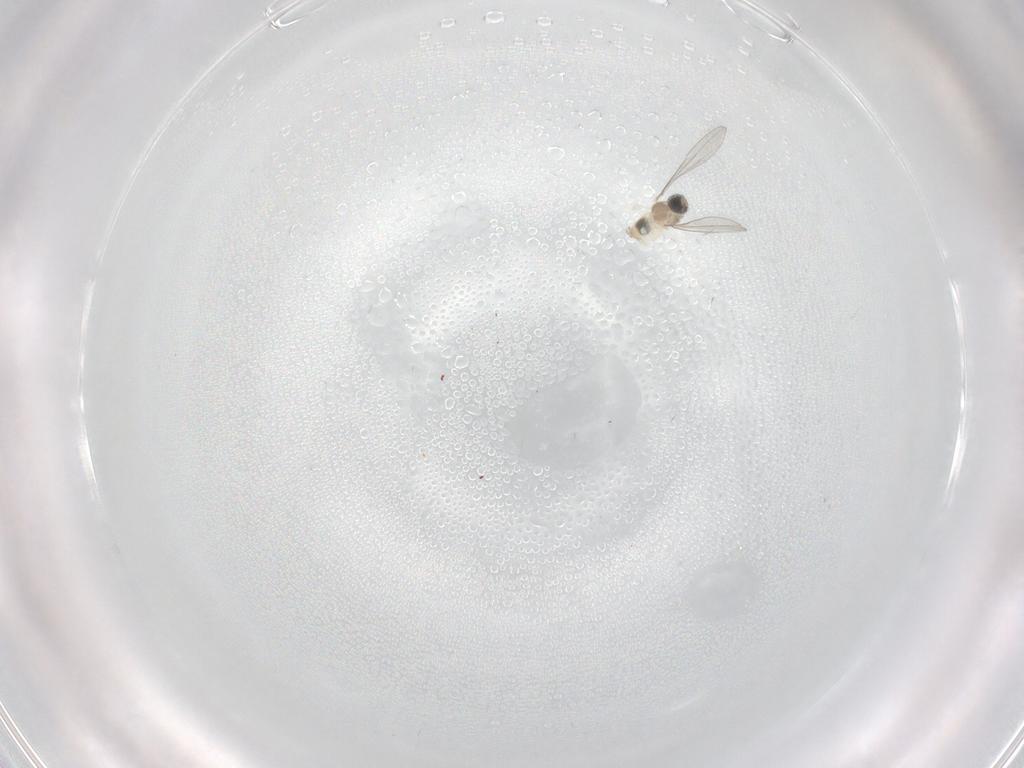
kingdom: Animalia
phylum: Arthropoda
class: Insecta
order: Diptera
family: Cecidomyiidae
